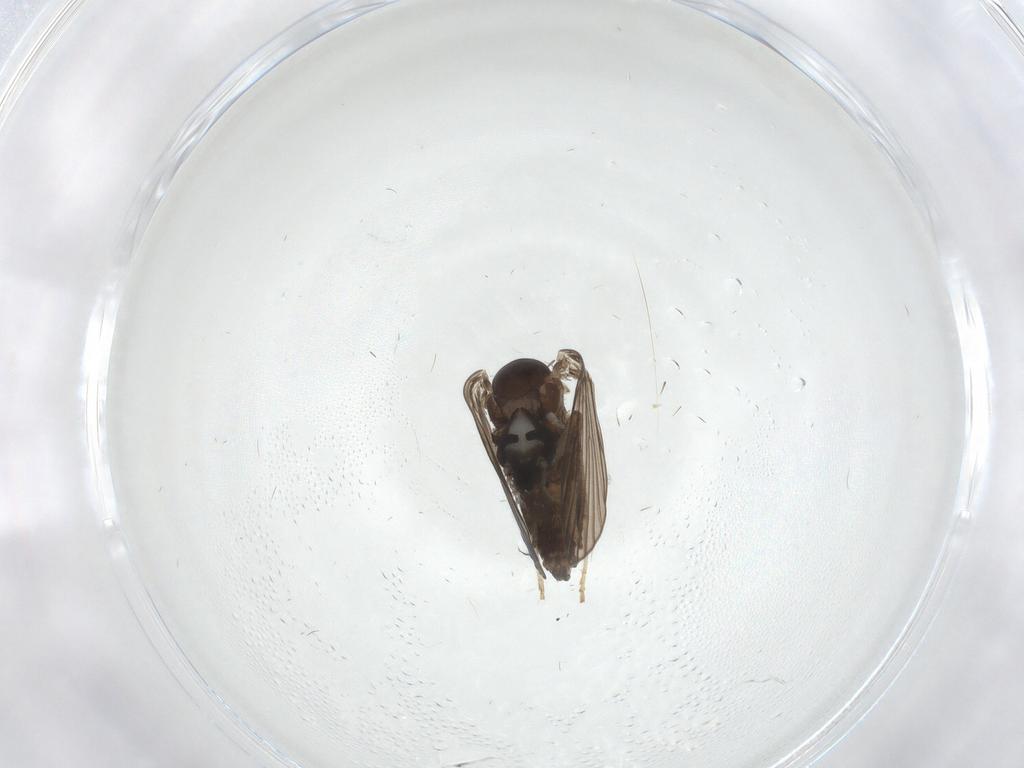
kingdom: Animalia
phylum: Arthropoda
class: Insecta
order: Diptera
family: Psychodidae
